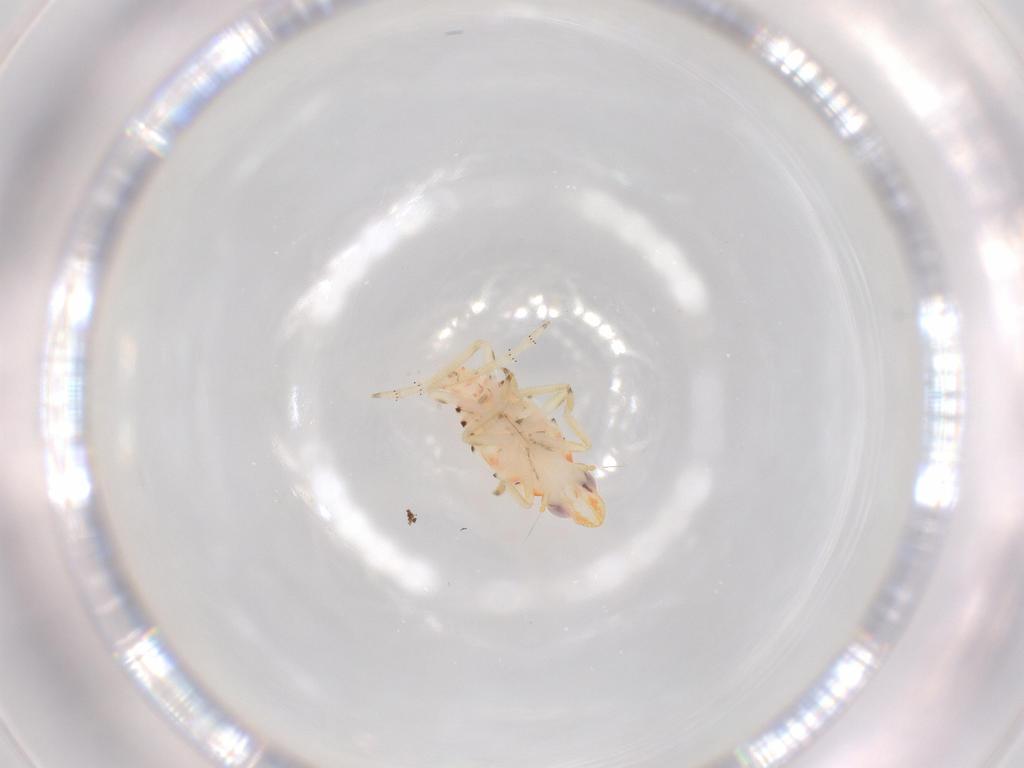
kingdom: Animalia
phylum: Arthropoda
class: Insecta
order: Hemiptera
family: Tropiduchidae
